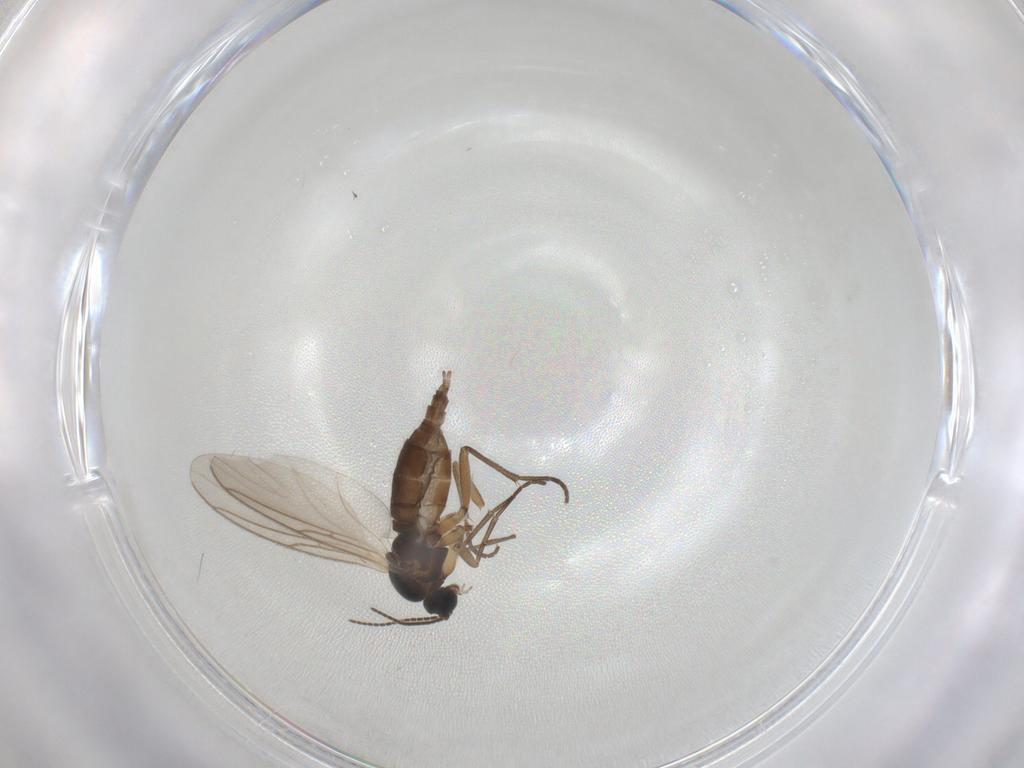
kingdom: Animalia
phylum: Arthropoda
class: Insecta
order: Diptera
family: Sciaridae
